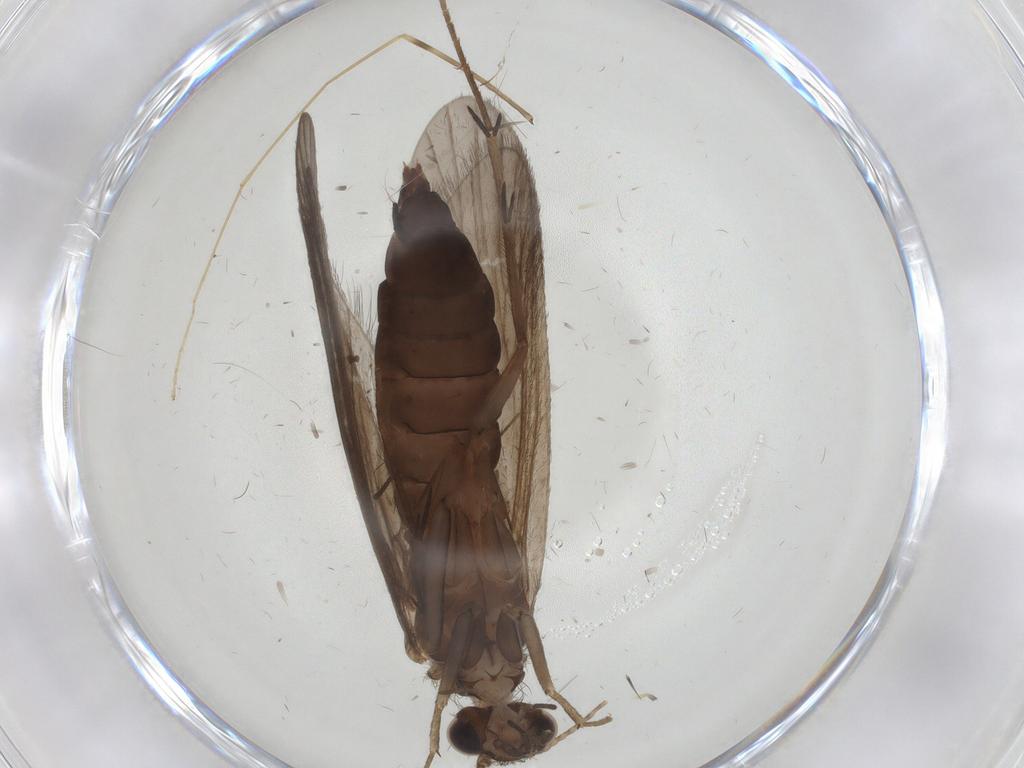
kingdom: Animalia
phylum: Arthropoda
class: Insecta
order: Trichoptera
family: Philopotamidae
